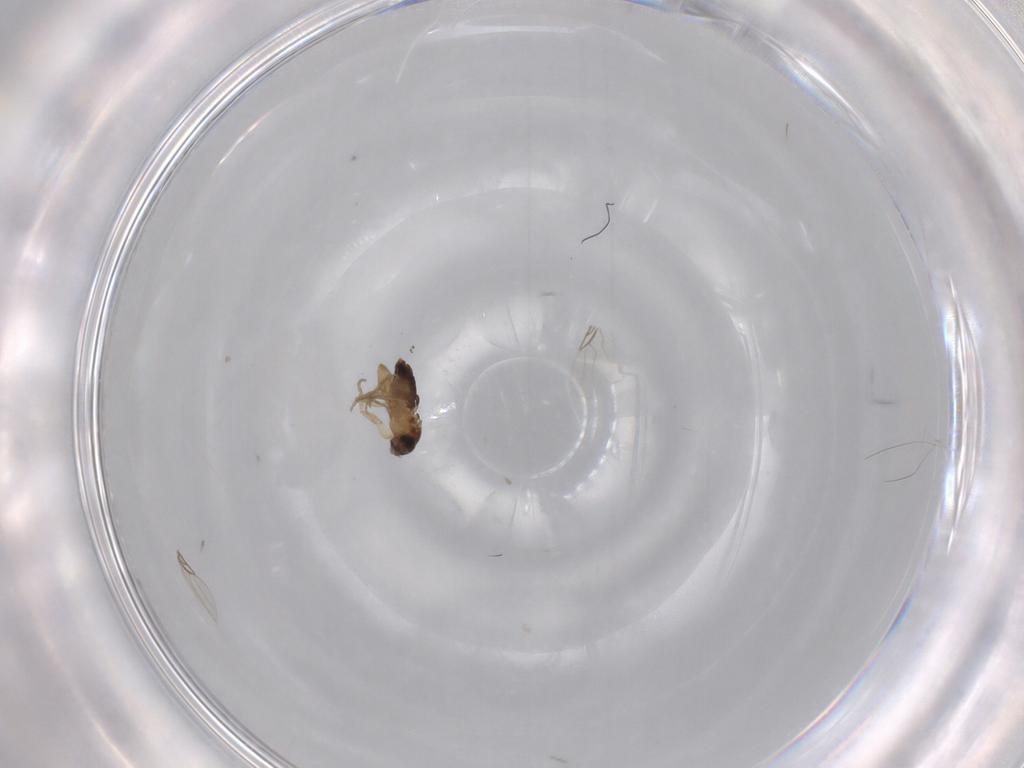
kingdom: Animalia
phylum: Arthropoda
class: Insecta
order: Diptera
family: Phoridae
